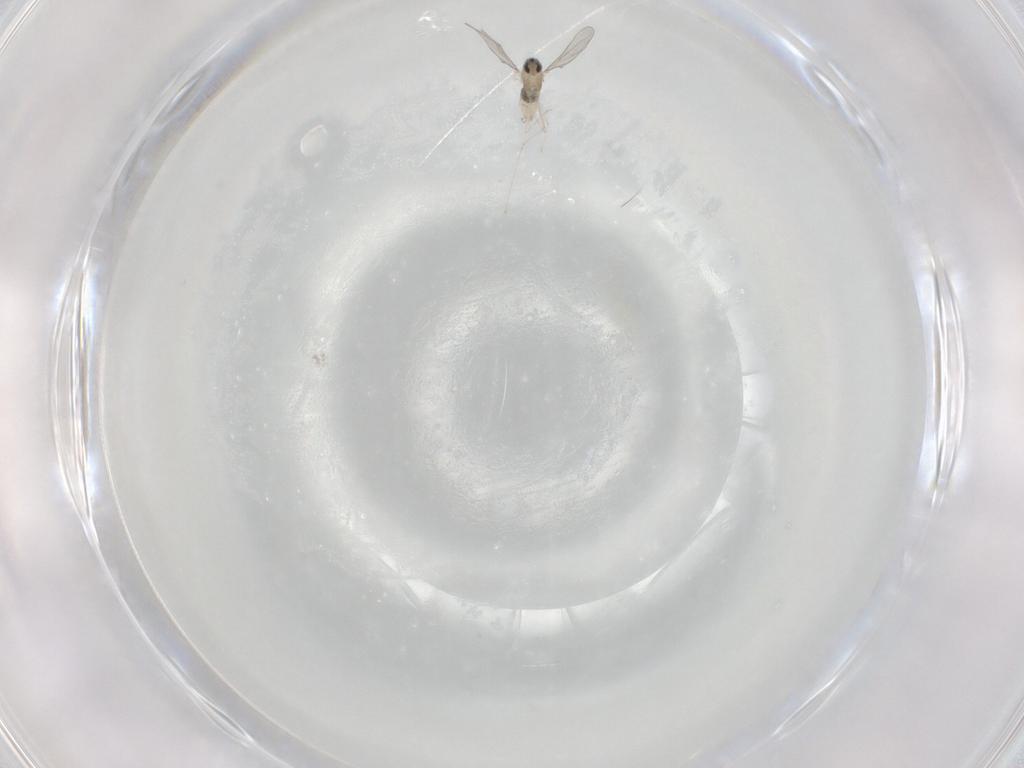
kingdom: Animalia
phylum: Arthropoda
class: Insecta
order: Diptera
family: Cecidomyiidae
